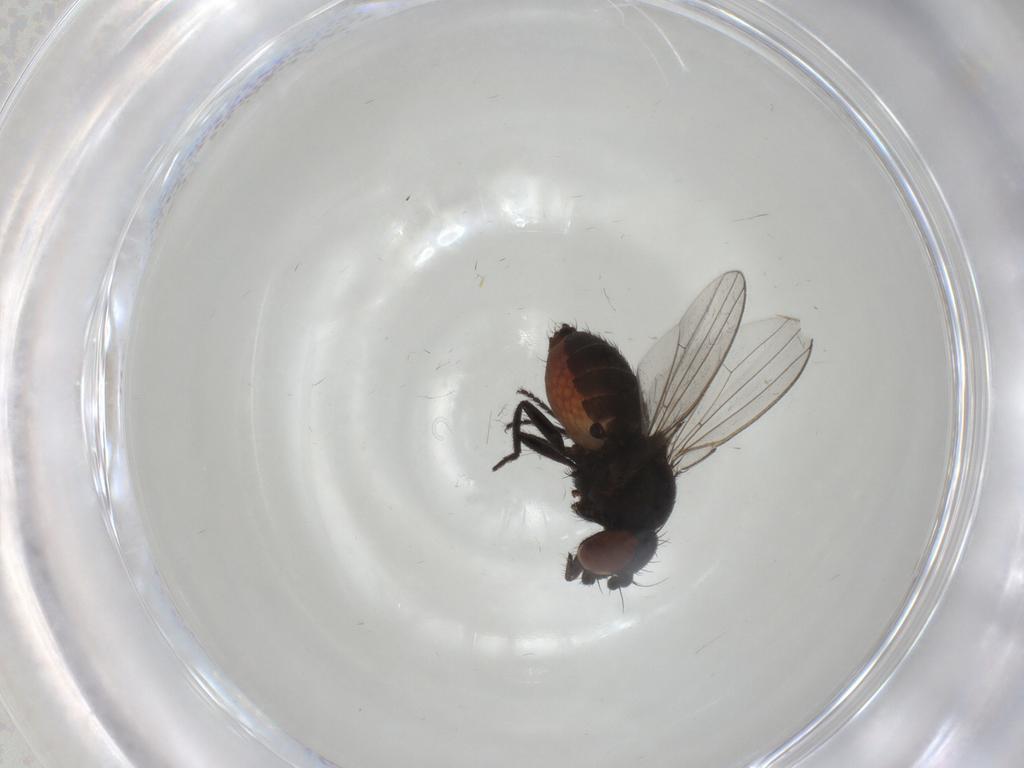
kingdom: Animalia
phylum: Arthropoda
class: Insecta
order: Diptera
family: Milichiidae
